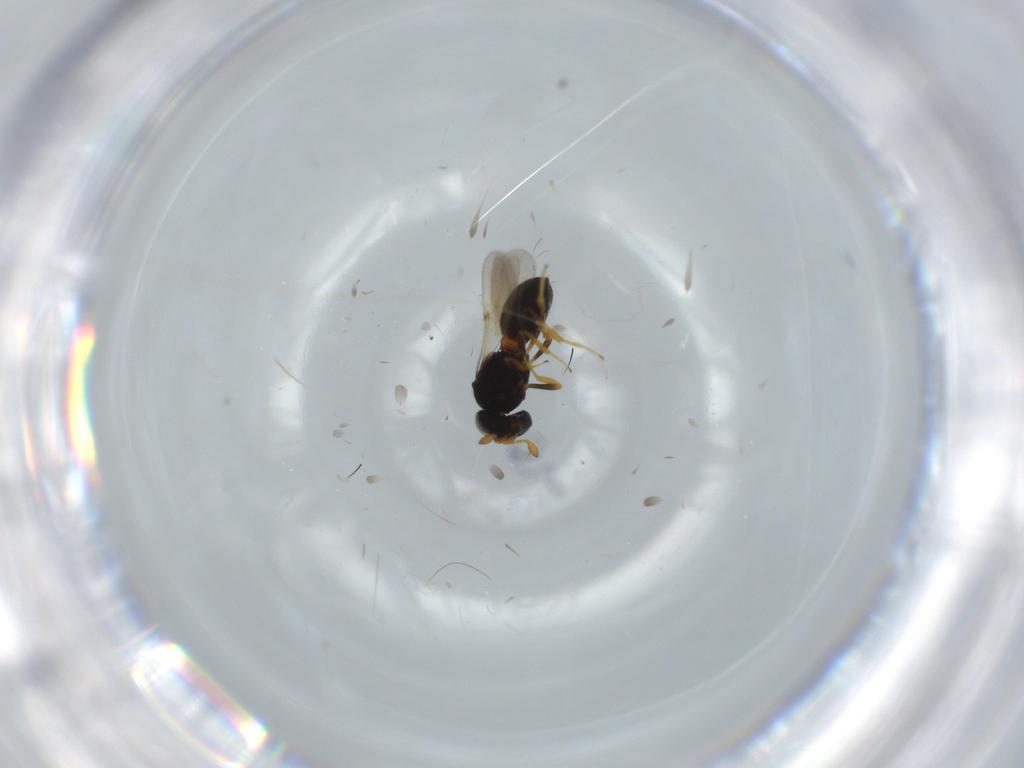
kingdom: Animalia
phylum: Arthropoda
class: Insecta
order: Hymenoptera
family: Scelionidae
